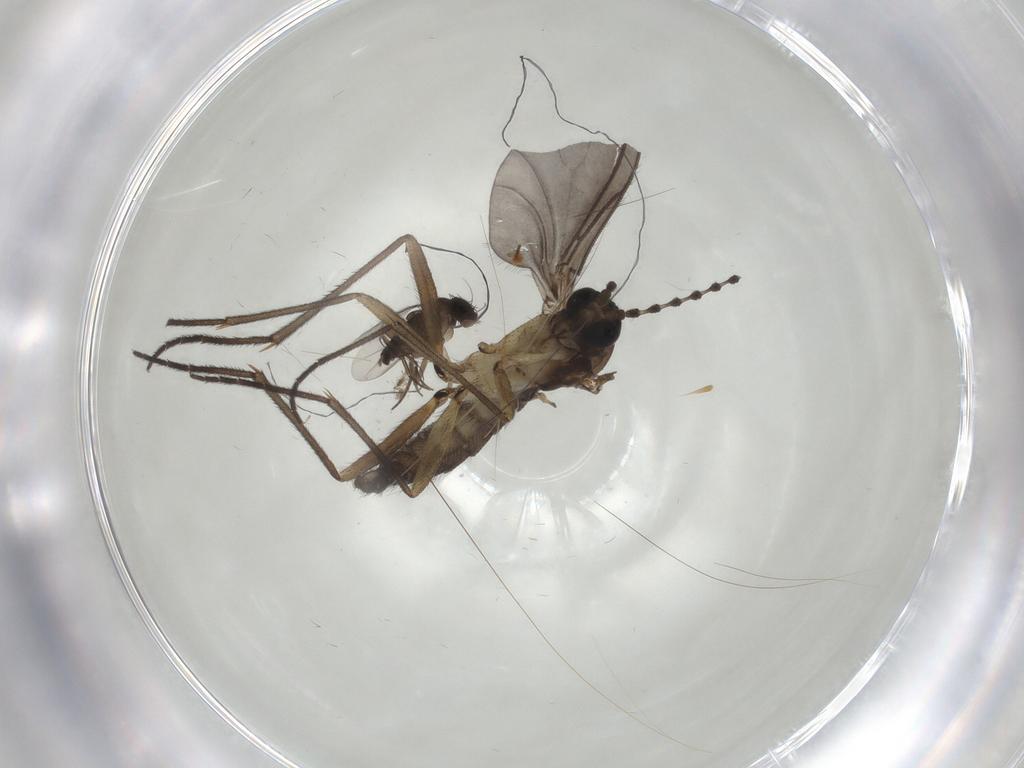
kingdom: Animalia
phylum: Arthropoda
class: Insecta
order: Diptera
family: Sciaridae
